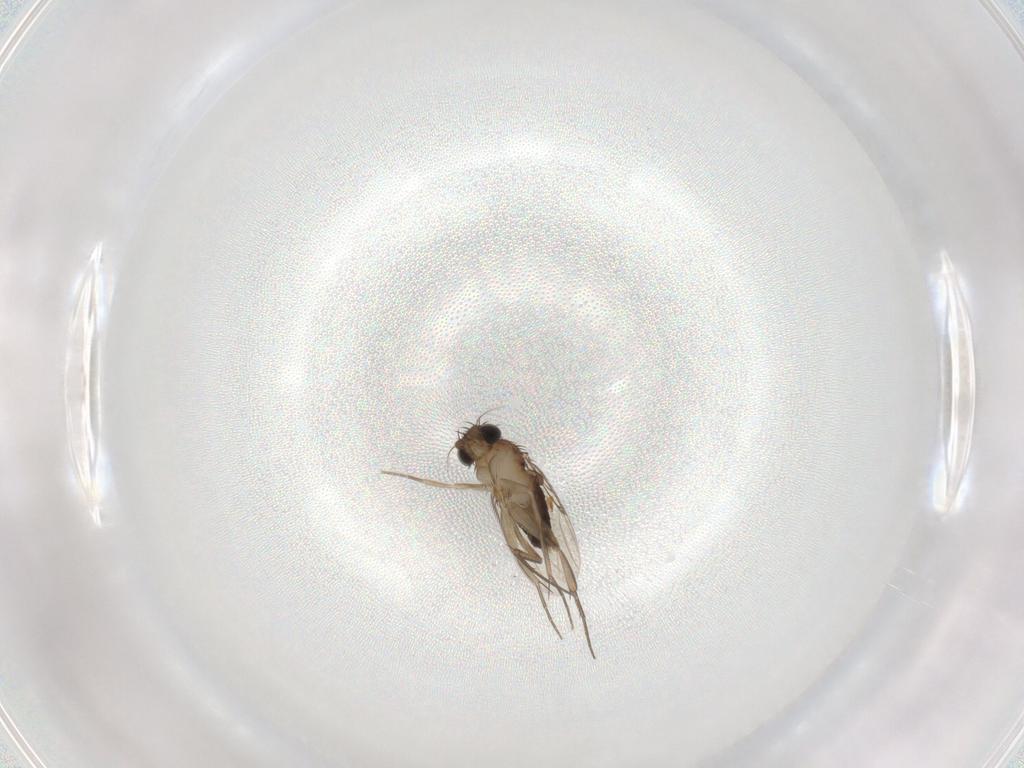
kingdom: Animalia
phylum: Arthropoda
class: Insecta
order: Diptera
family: Phoridae
